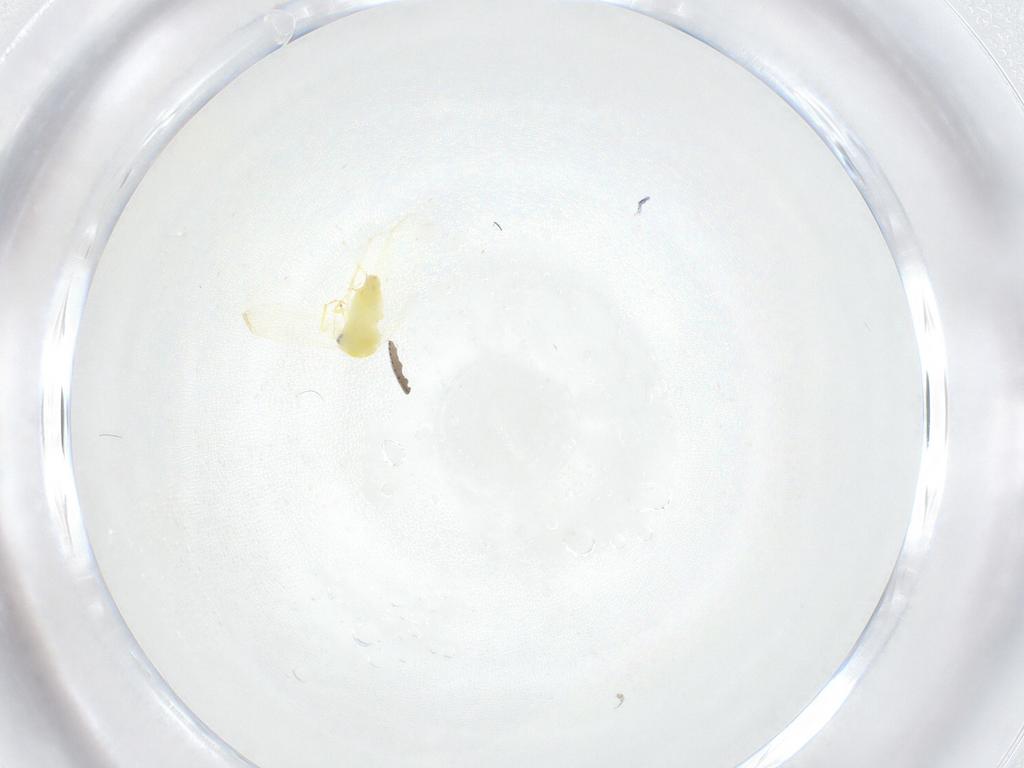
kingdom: Animalia
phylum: Arthropoda
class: Insecta
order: Hemiptera
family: Aleyrodidae
